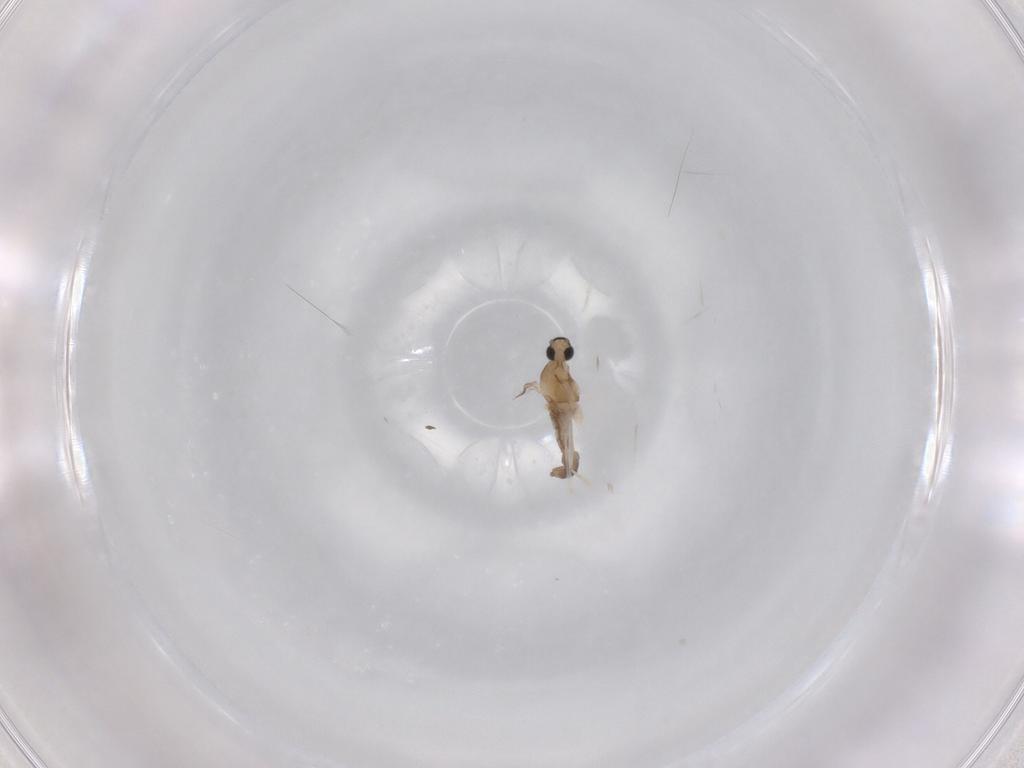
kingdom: Animalia
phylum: Arthropoda
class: Insecta
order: Diptera
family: Cecidomyiidae
